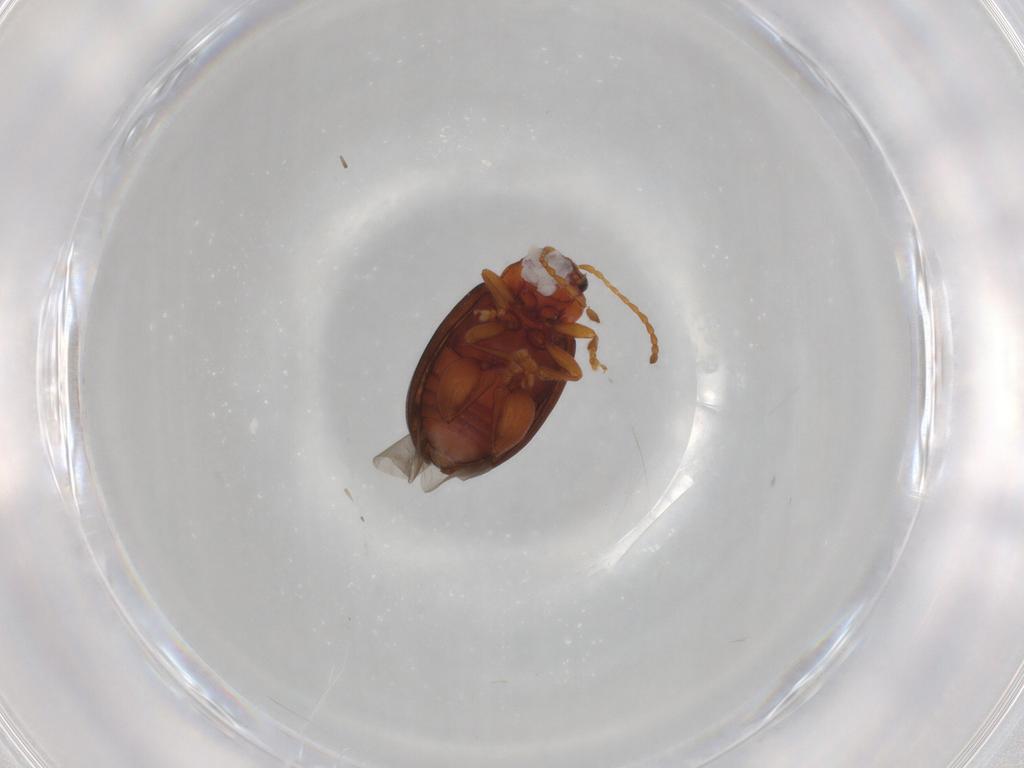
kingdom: Animalia
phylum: Arthropoda
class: Insecta
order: Coleoptera
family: Chrysomelidae
